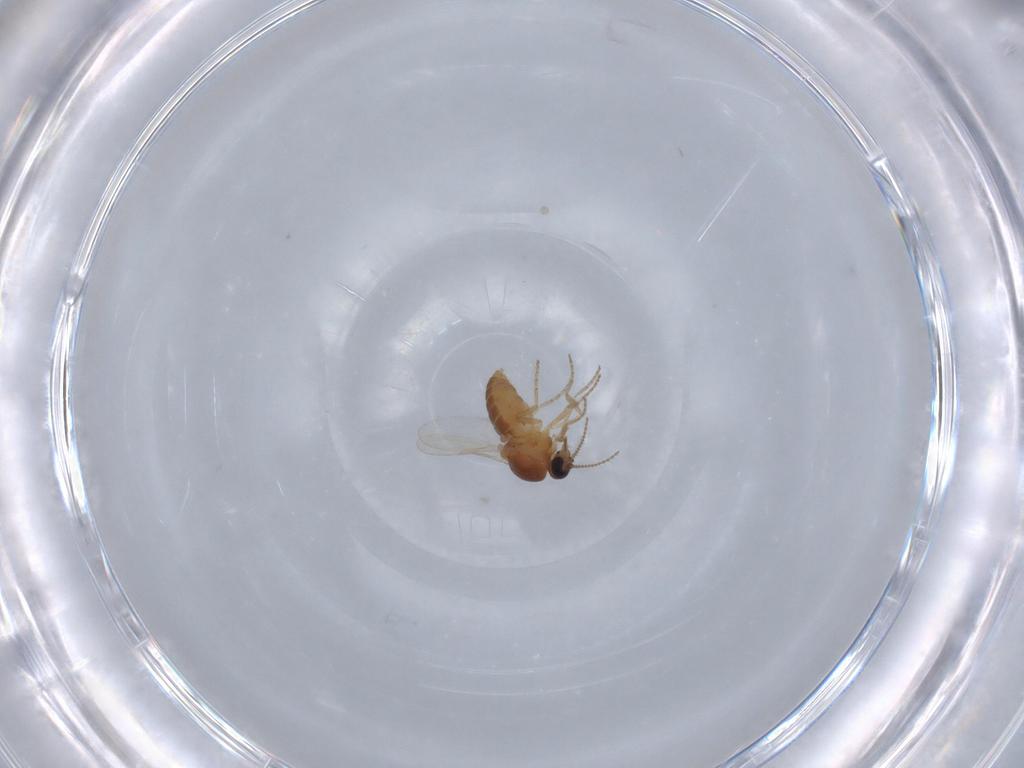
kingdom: Animalia
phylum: Arthropoda
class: Insecta
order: Diptera
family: Ceratopogonidae
